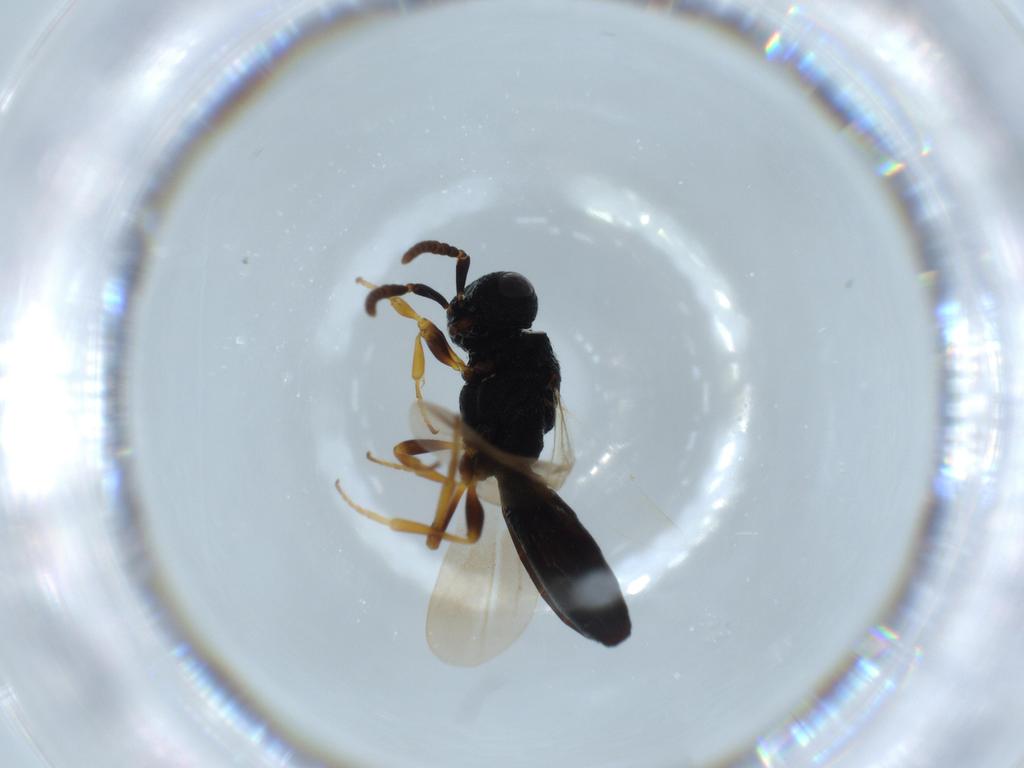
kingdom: Animalia
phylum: Arthropoda
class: Insecta
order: Hymenoptera
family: Scelionidae
